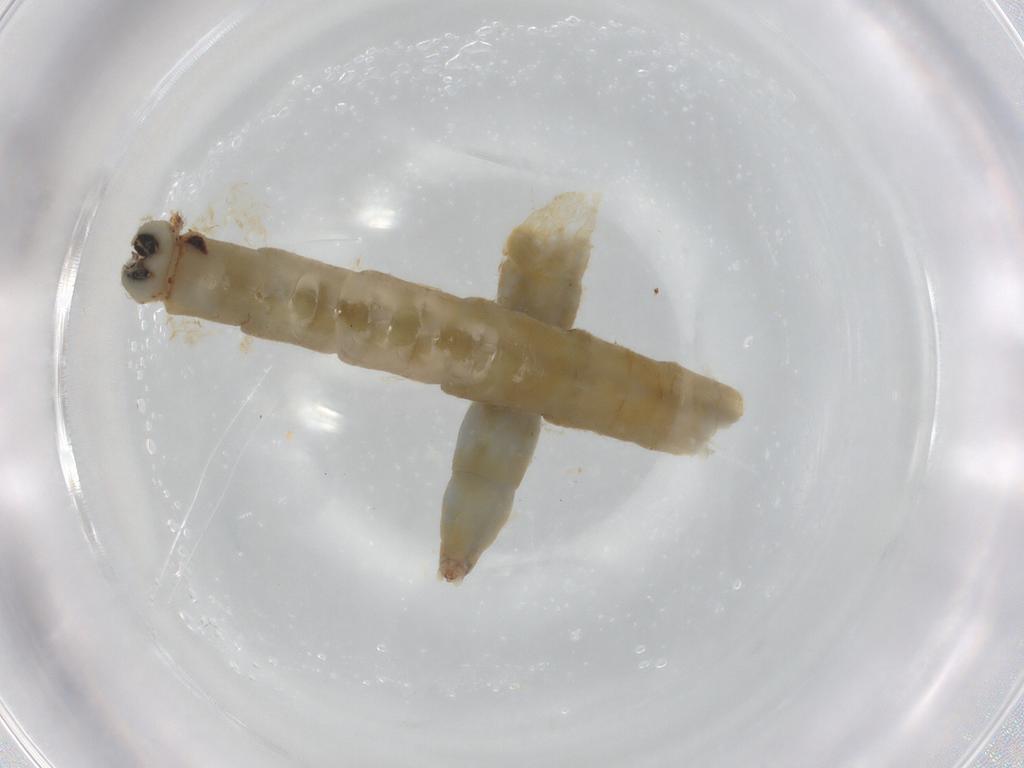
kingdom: Animalia
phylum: Arthropoda
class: Insecta
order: Diptera
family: Limoniidae
